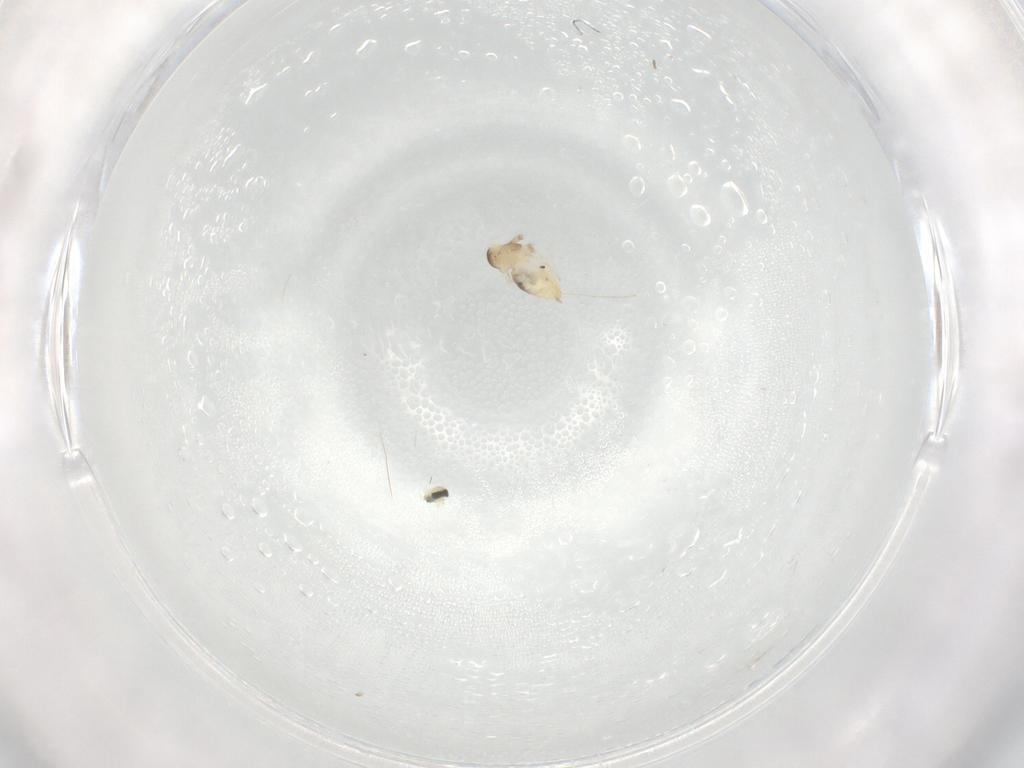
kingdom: Animalia
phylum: Arthropoda
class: Insecta
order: Diptera
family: Cecidomyiidae
